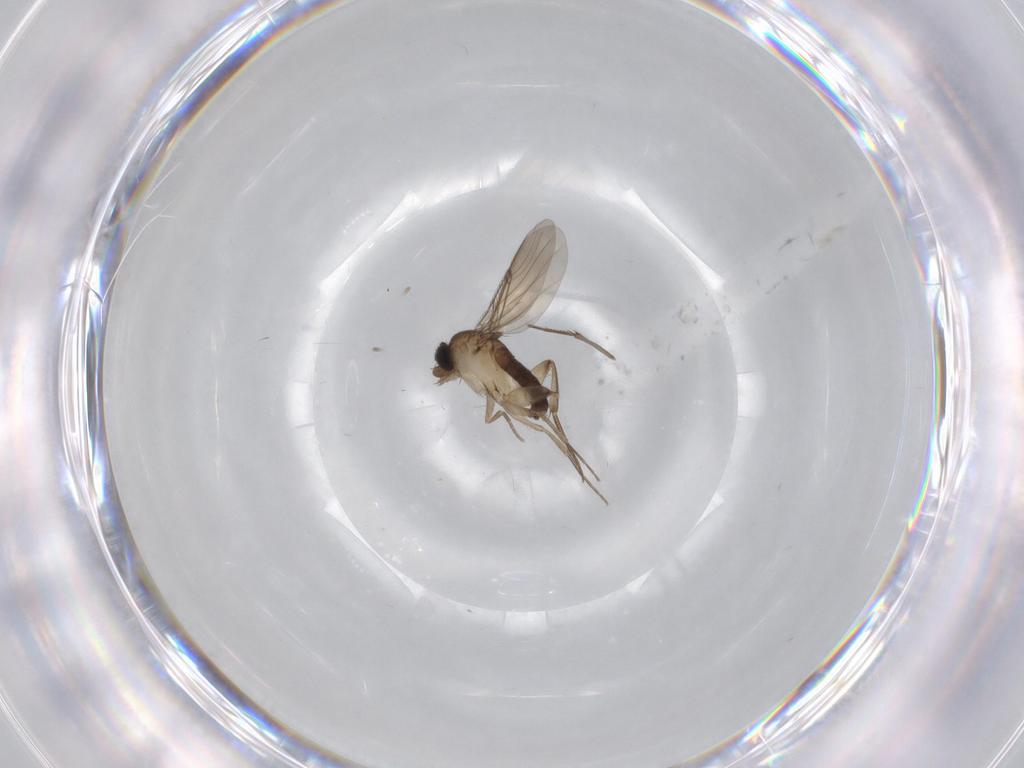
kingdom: Animalia
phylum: Arthropoda
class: Insecta
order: Diptera
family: Phoridae
